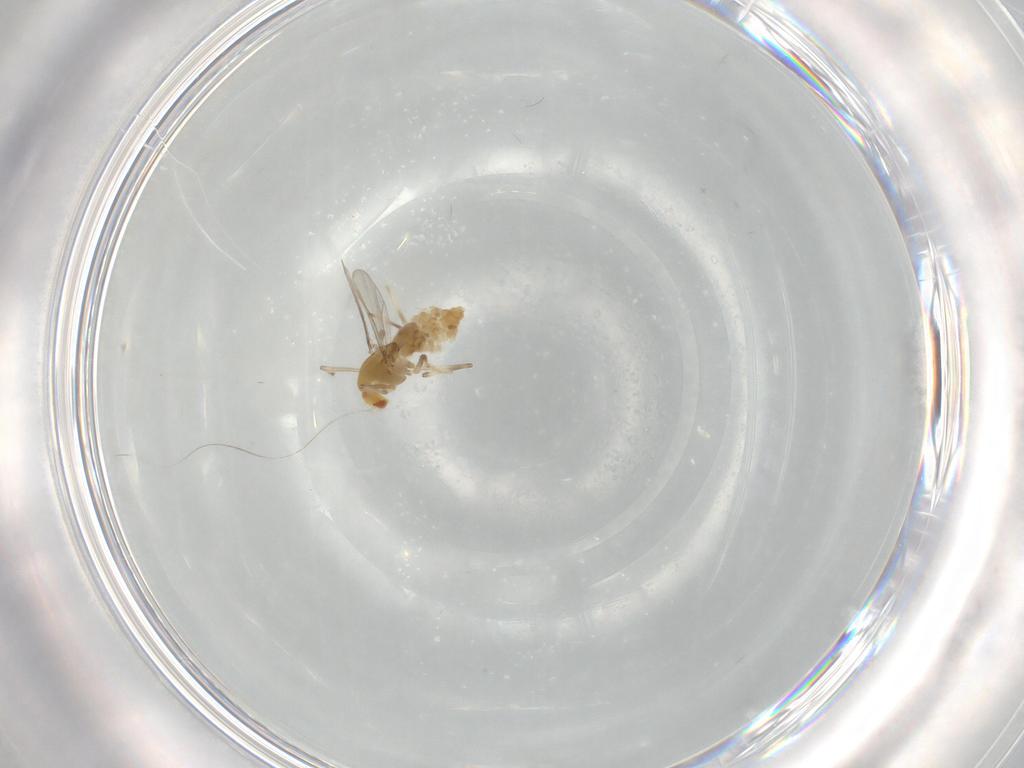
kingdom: Animalia
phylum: Arthropoda
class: Insecta
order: Diptera
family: Chironomidae
